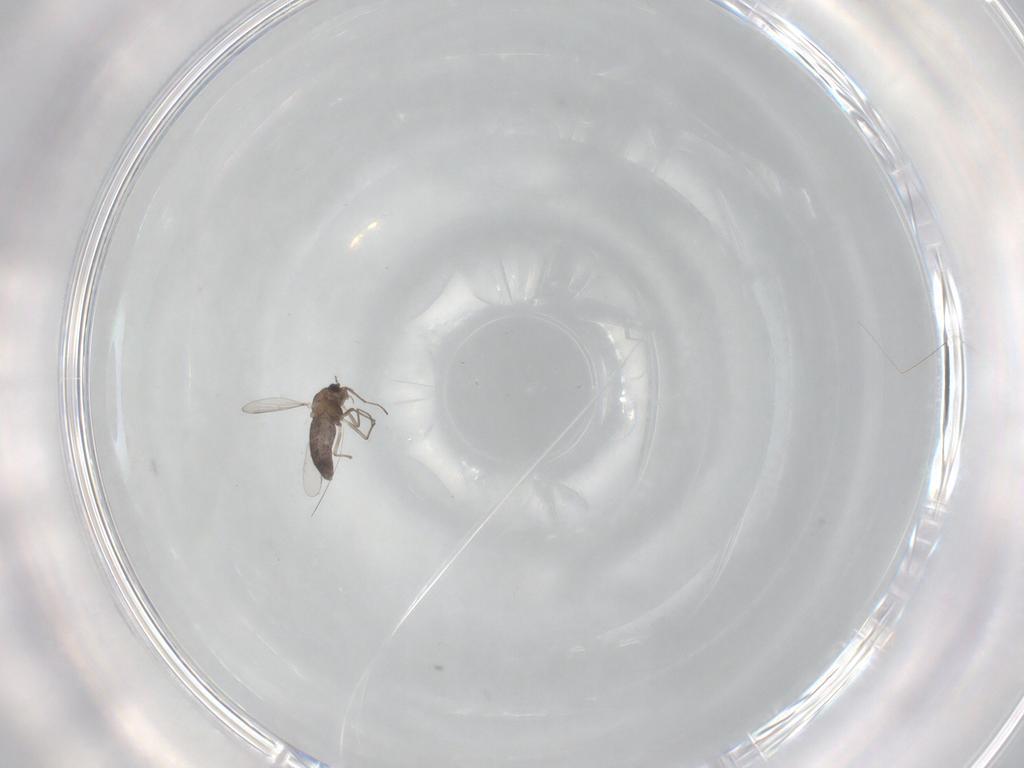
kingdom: Animalia
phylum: Arthropoda
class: Insecta
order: Diptera
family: Chironomidae
